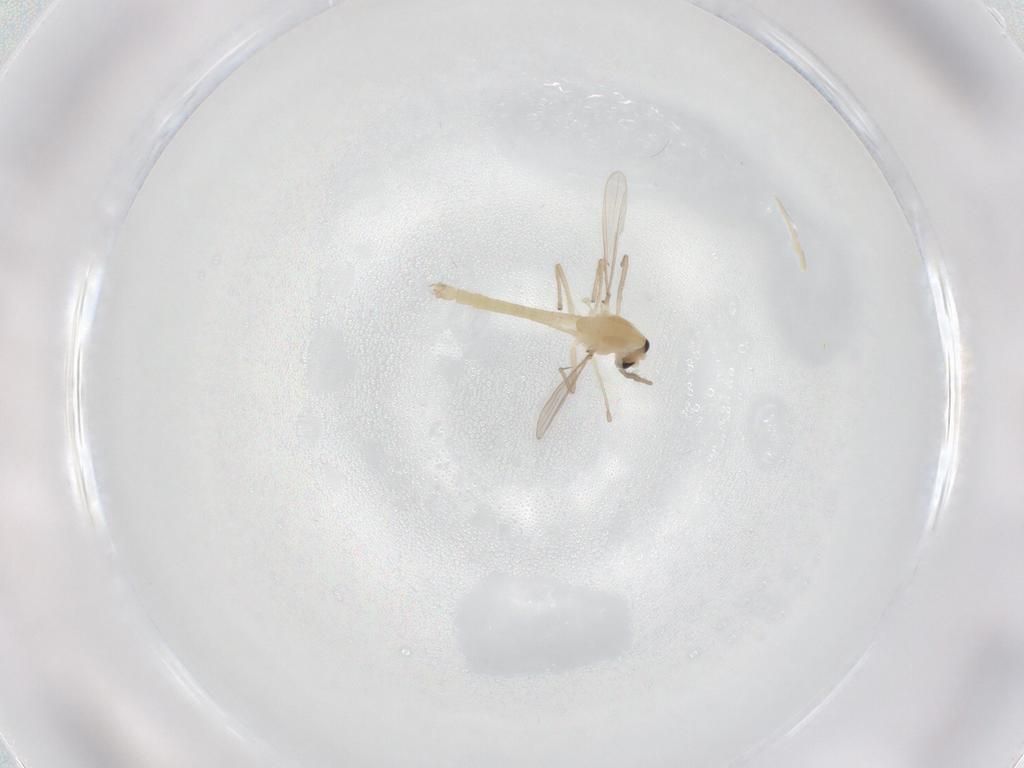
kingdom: Animalia
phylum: Arthropoda
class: Insecta
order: Diptera
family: Chironomidae
